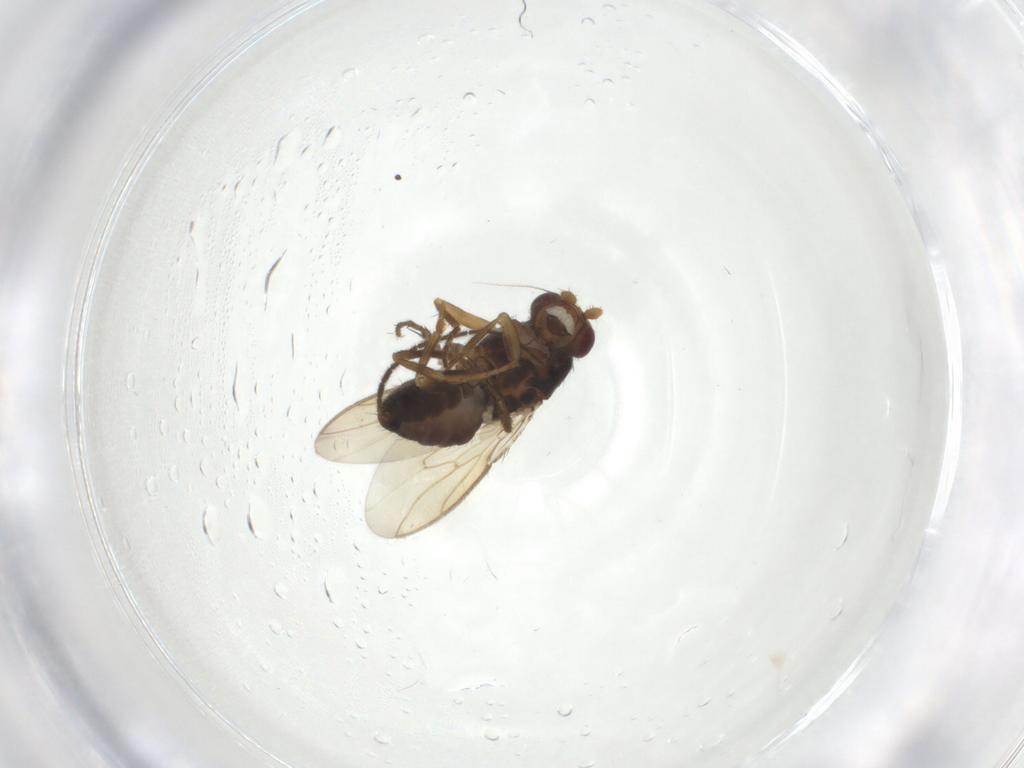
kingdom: Animalia
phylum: Arthropoda
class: Insecta
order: Diptera
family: Sphaeroceridae
